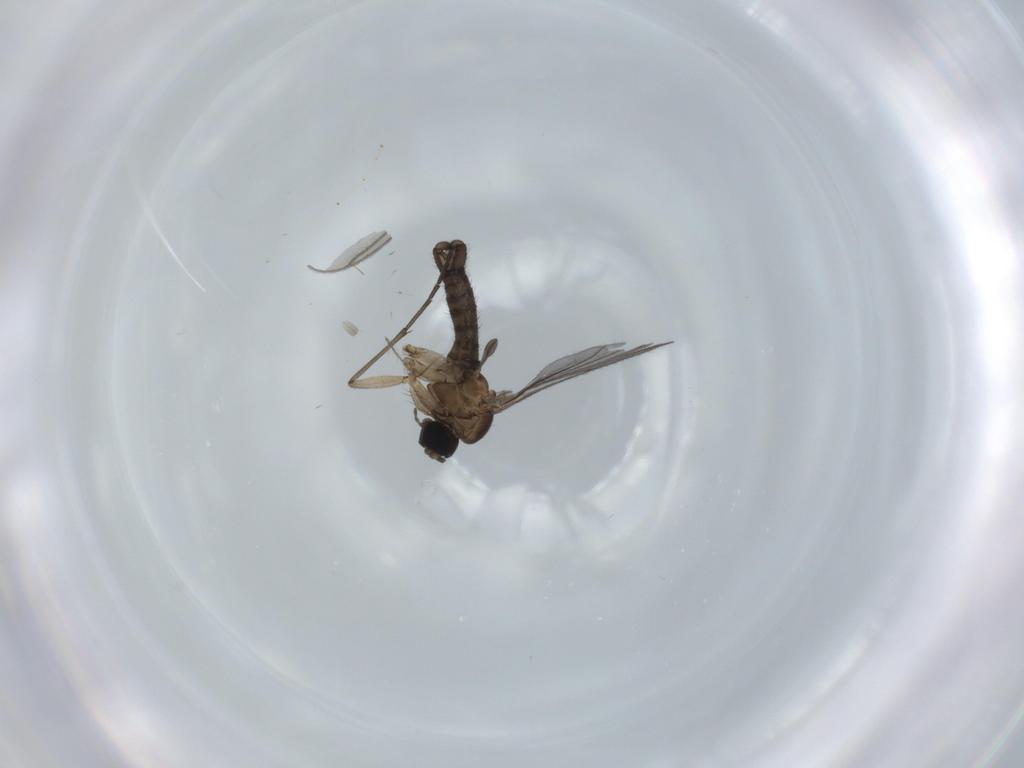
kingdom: Animalia
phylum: Arthropoda
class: Insecta
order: Diptera
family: Sciaridae
